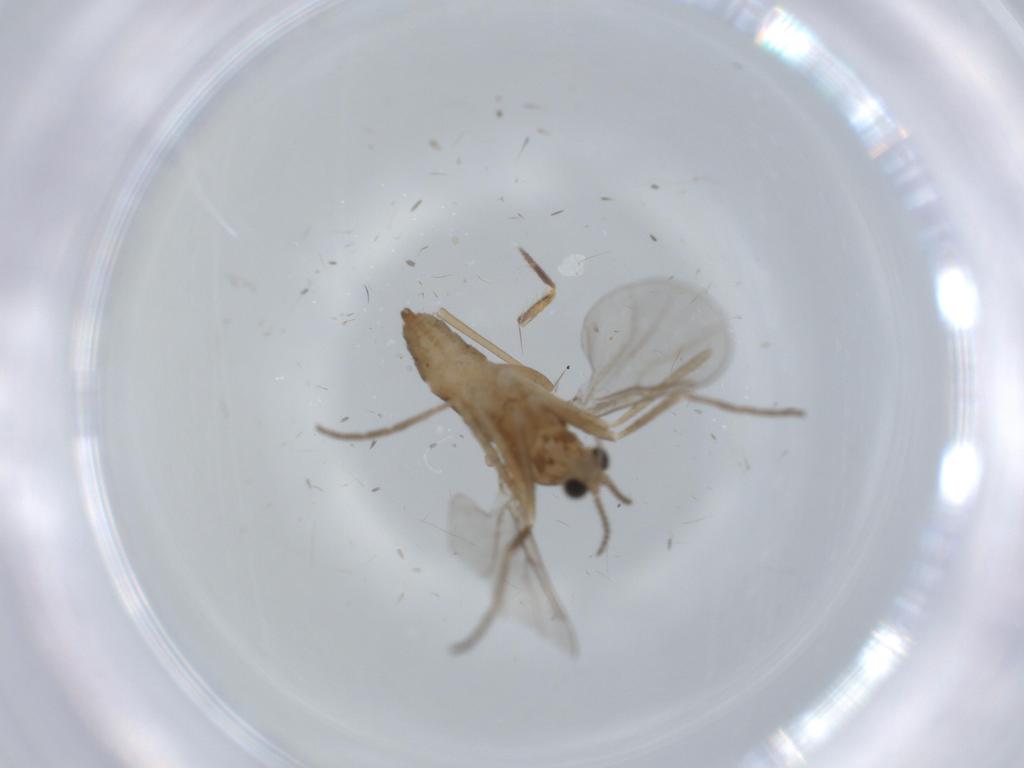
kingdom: Animalia
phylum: Arthropoda
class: Insecta
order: Diptera
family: Cecidomyiidae
